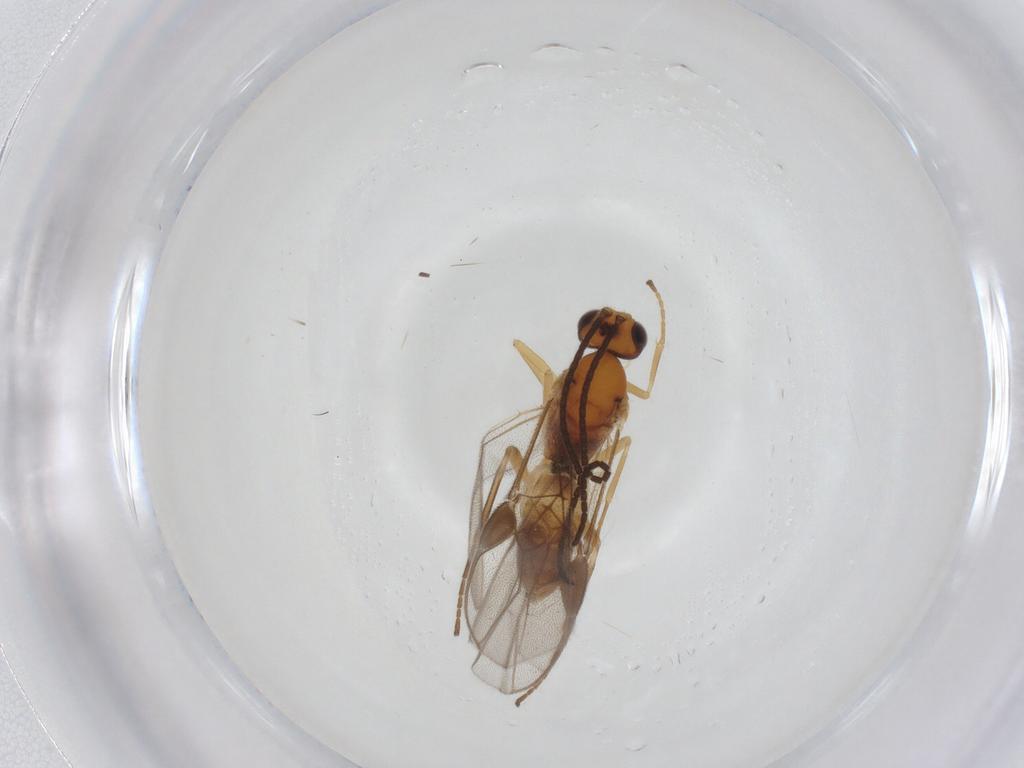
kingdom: Animalia
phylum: Arthropoda
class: Insecta
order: Hymenoptera
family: Braconidae
